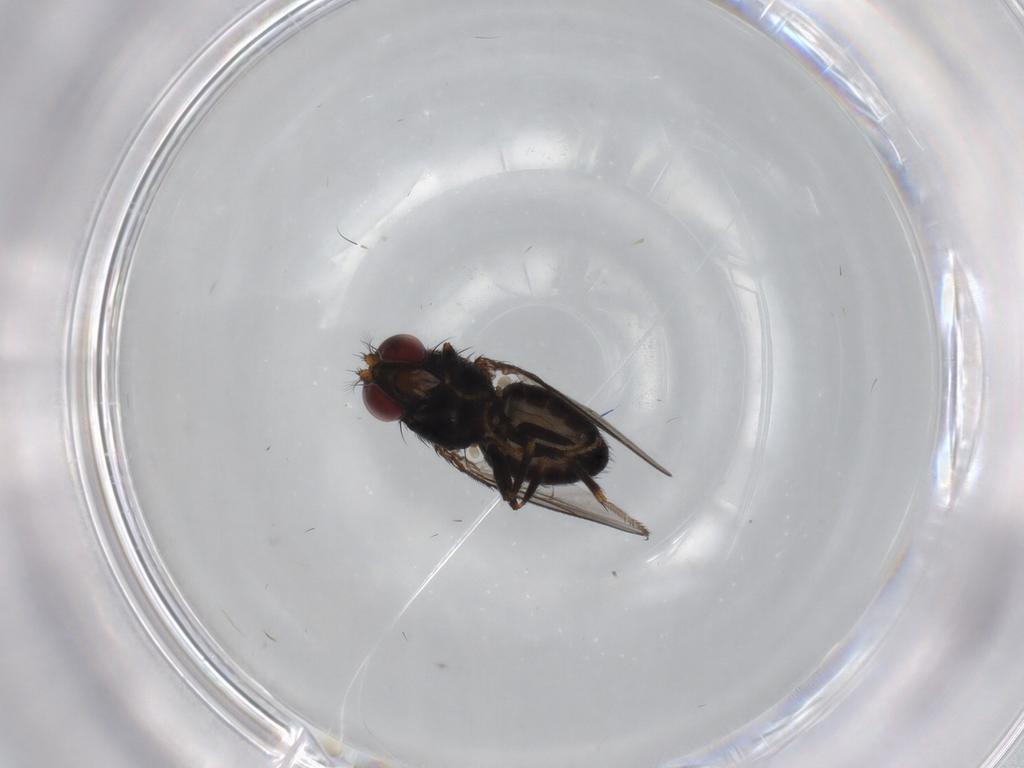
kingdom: Animalia
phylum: Arthropoda
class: Insecta
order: Diptera
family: Ephydridae
